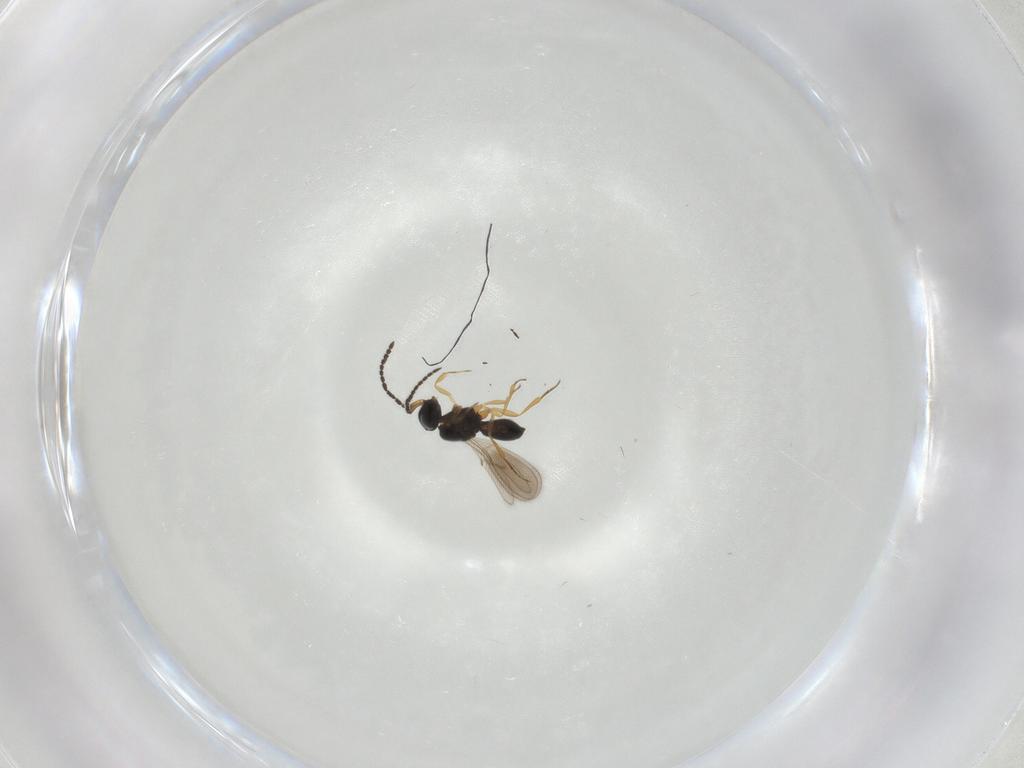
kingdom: Animalia
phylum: Arthropoda
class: Insecta
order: Hymenoptera
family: Scelionidae
